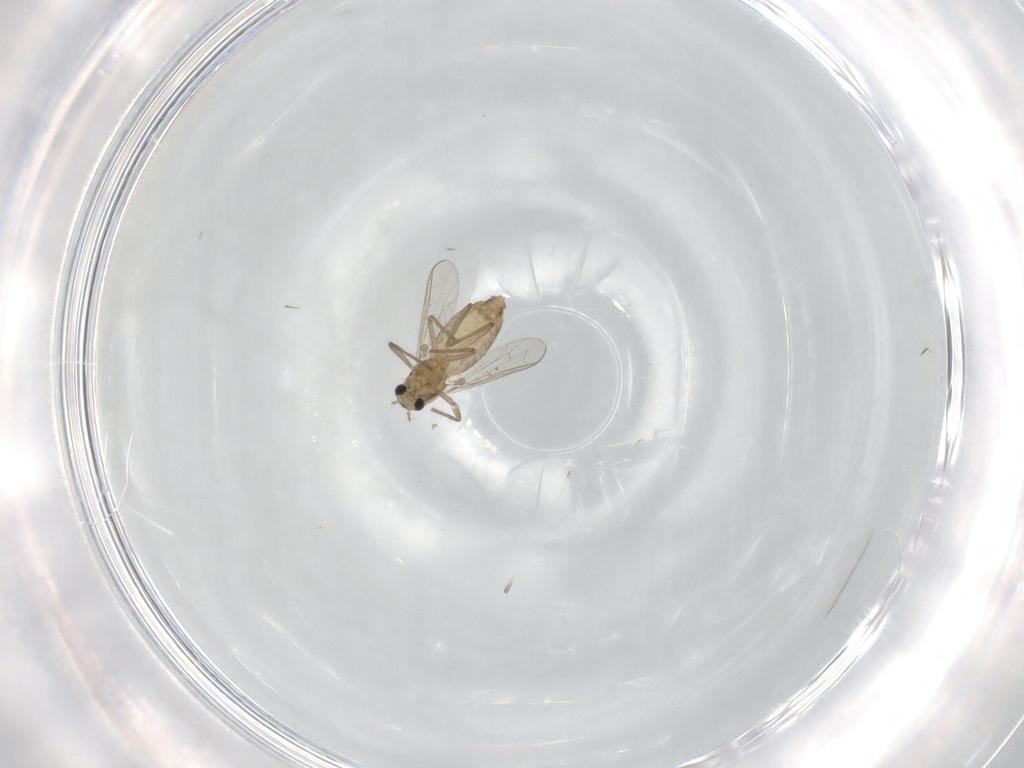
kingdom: Animalia
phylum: Arthropoda
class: Insecta
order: Diptera
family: Chironomidae
